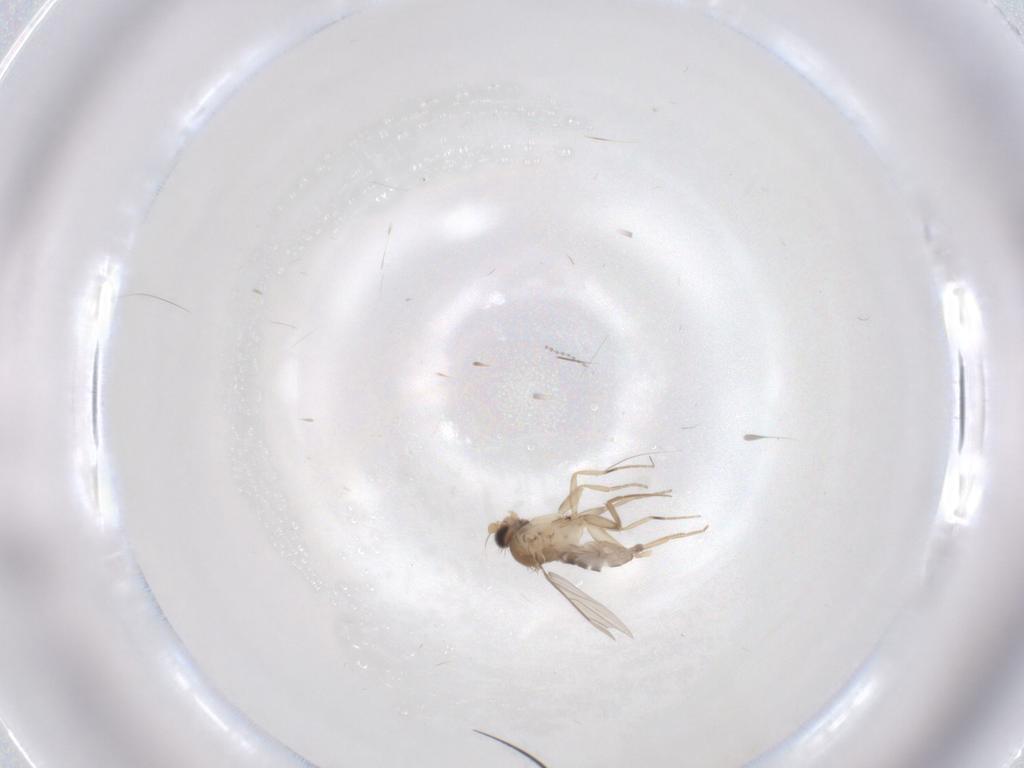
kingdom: Animalia
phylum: Arthropoda
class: Insecta
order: Diptera
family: Phoridae
